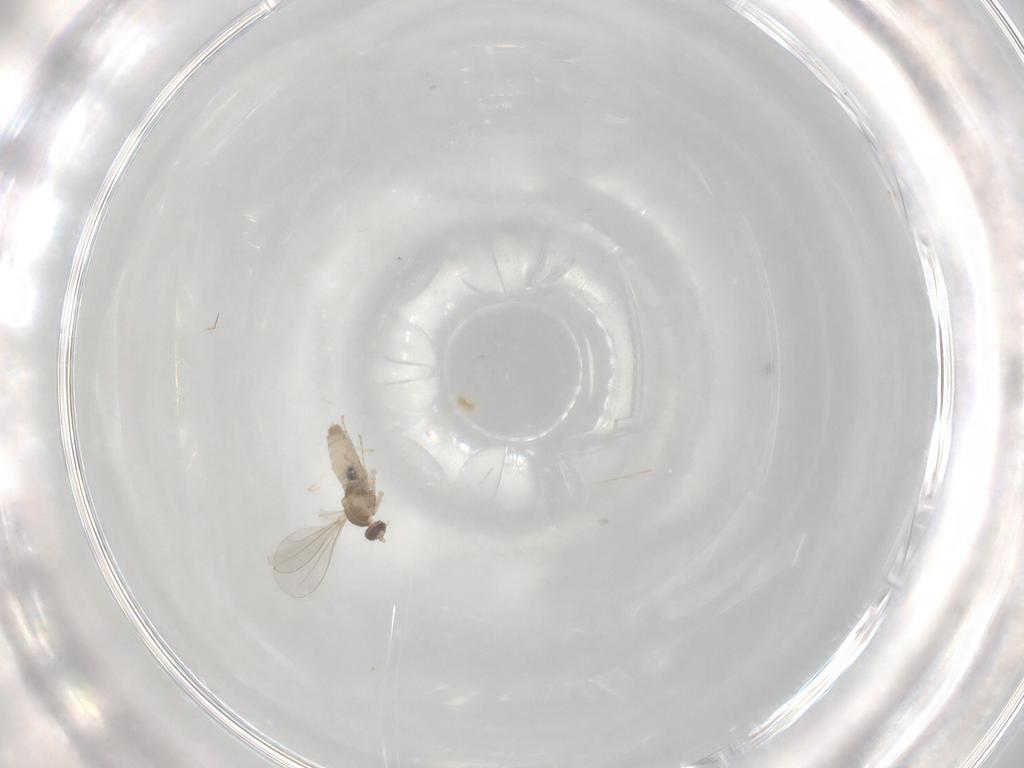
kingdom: Animalia
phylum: Arthropoda
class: Insecta
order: Diptera
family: Cecidomyiidae
